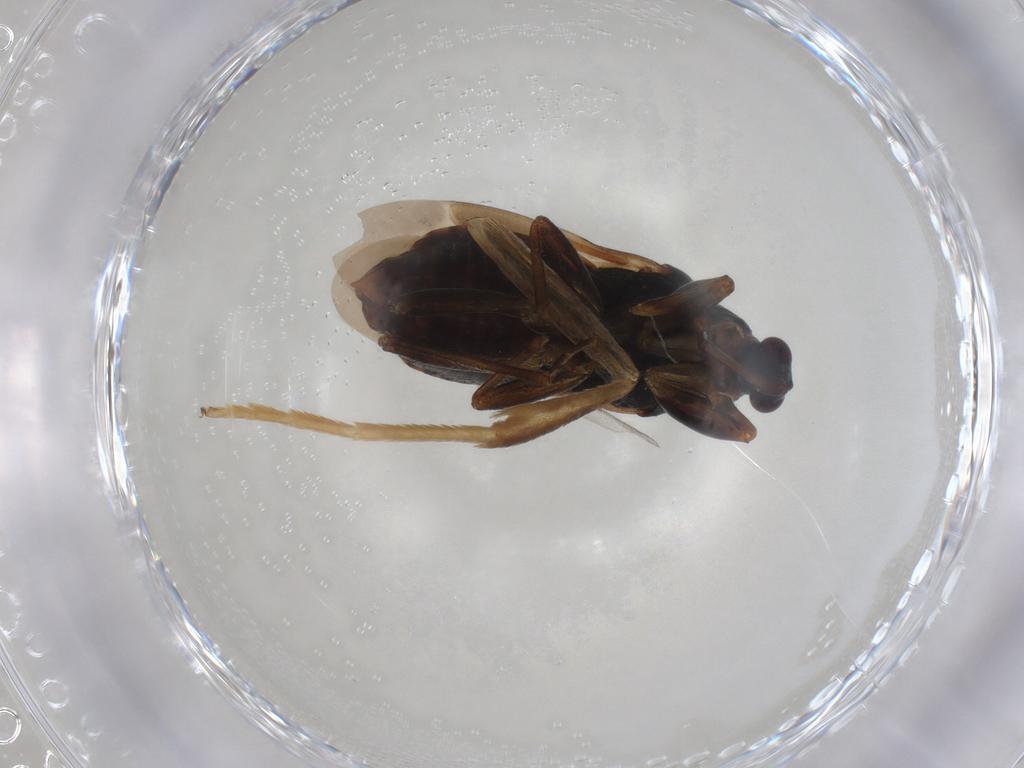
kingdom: Animalia
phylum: Arthropoda
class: Insecta
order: Hemiptera
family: Nabidae
